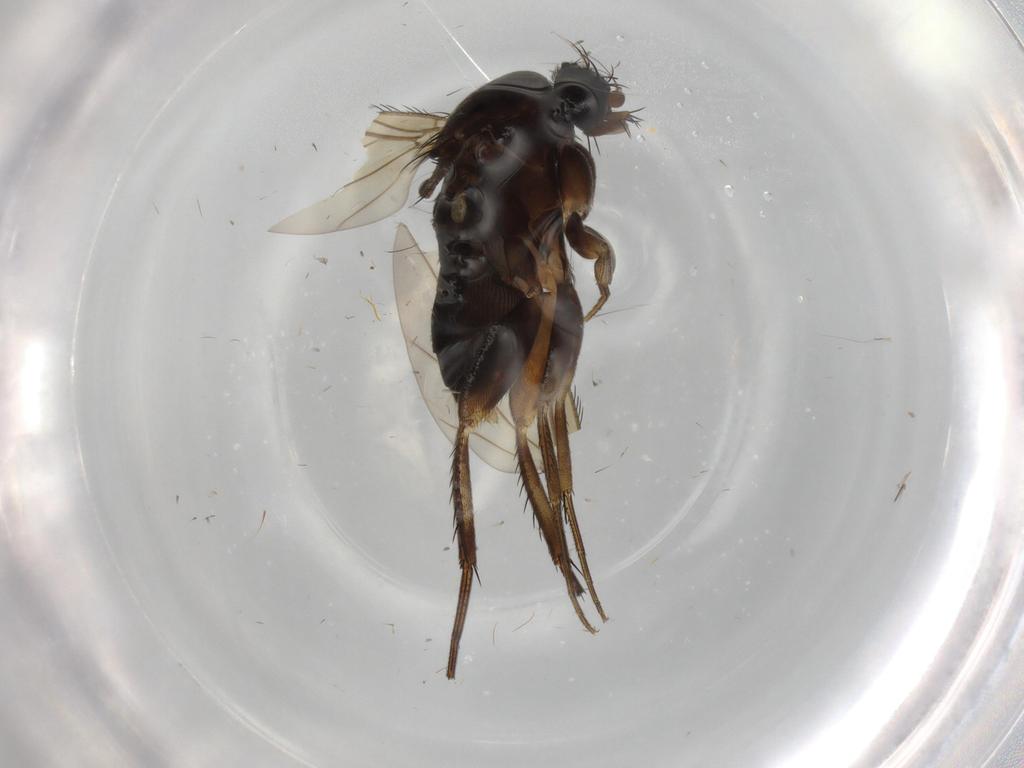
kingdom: Animalia
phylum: Arthropoda
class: Insecta
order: Diptera
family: Phoridae
